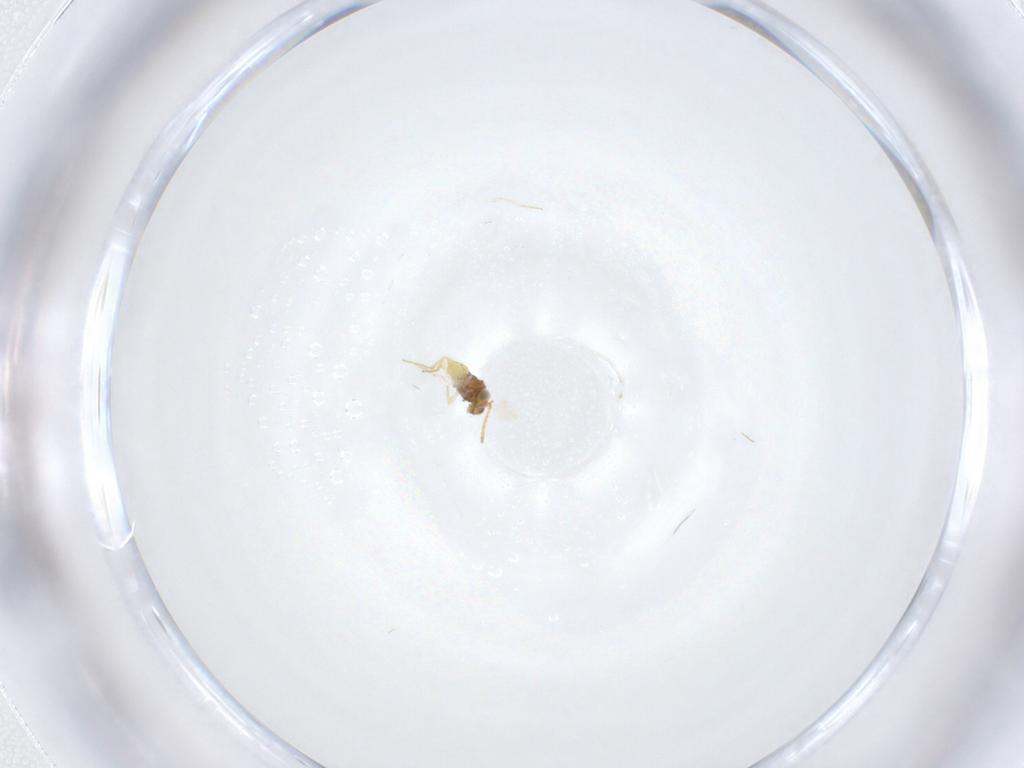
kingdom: Animalia
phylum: Arthropoda
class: Insecta
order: Hymenoptera
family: Aphelinidae
